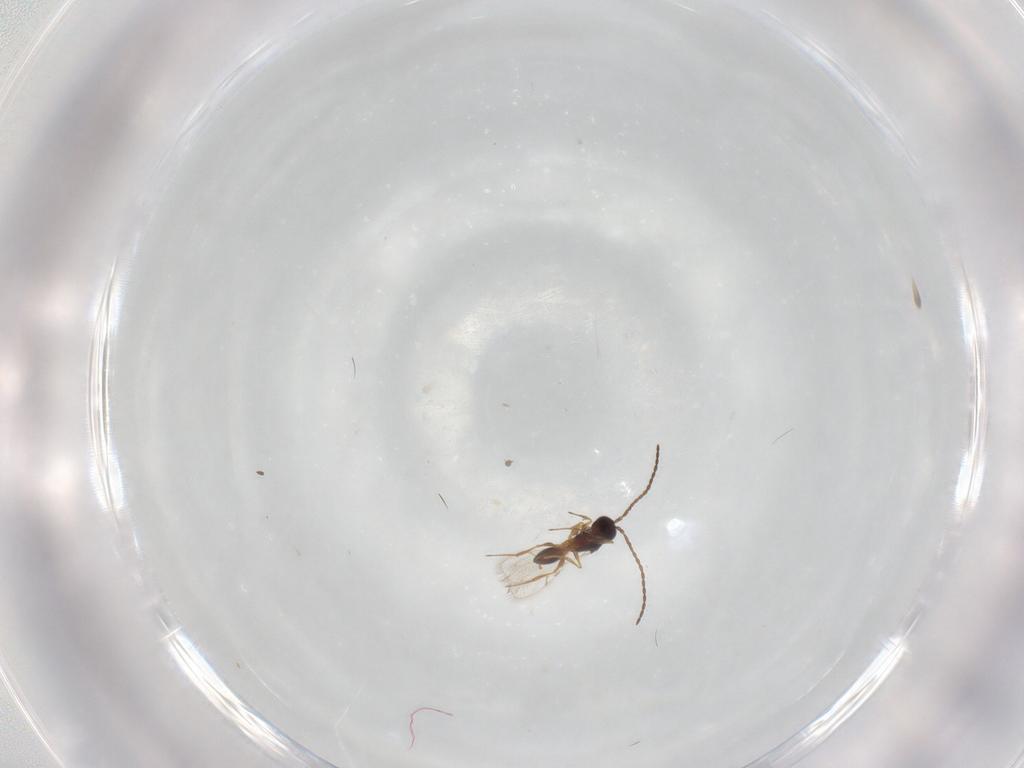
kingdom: Animalia
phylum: Arthropoda
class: Insecta
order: Hymenoptera
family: Figitidae
